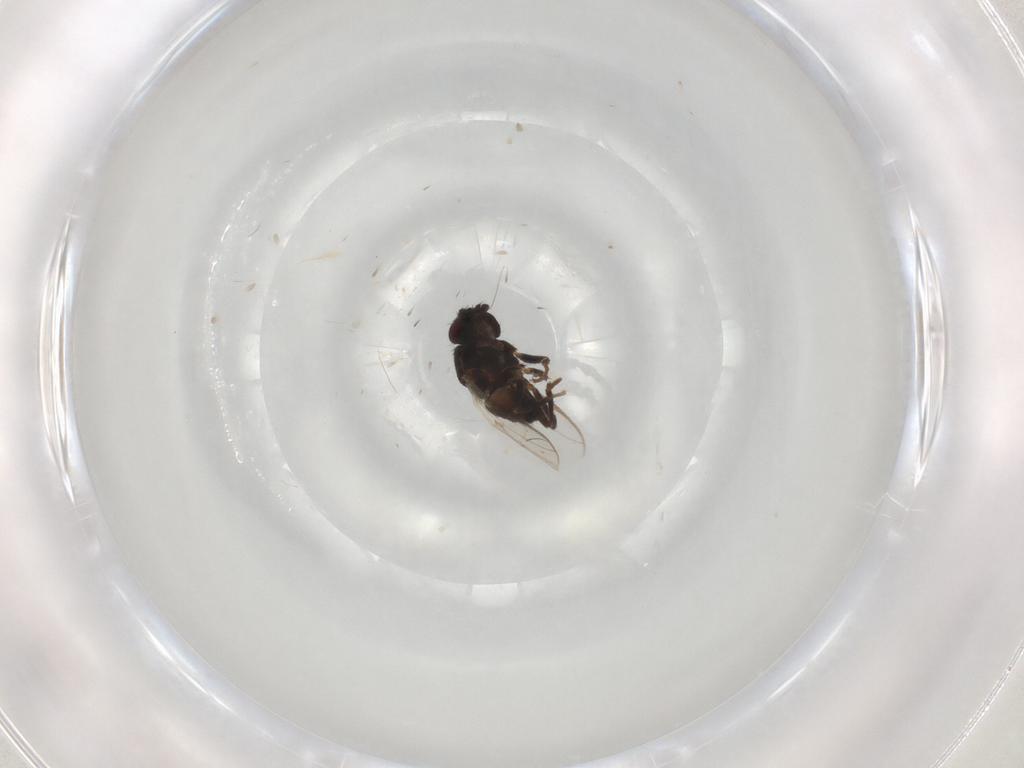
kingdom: Animalia
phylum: Arthropoda
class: Insecta
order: Diptera
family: Sphaeroceridae
